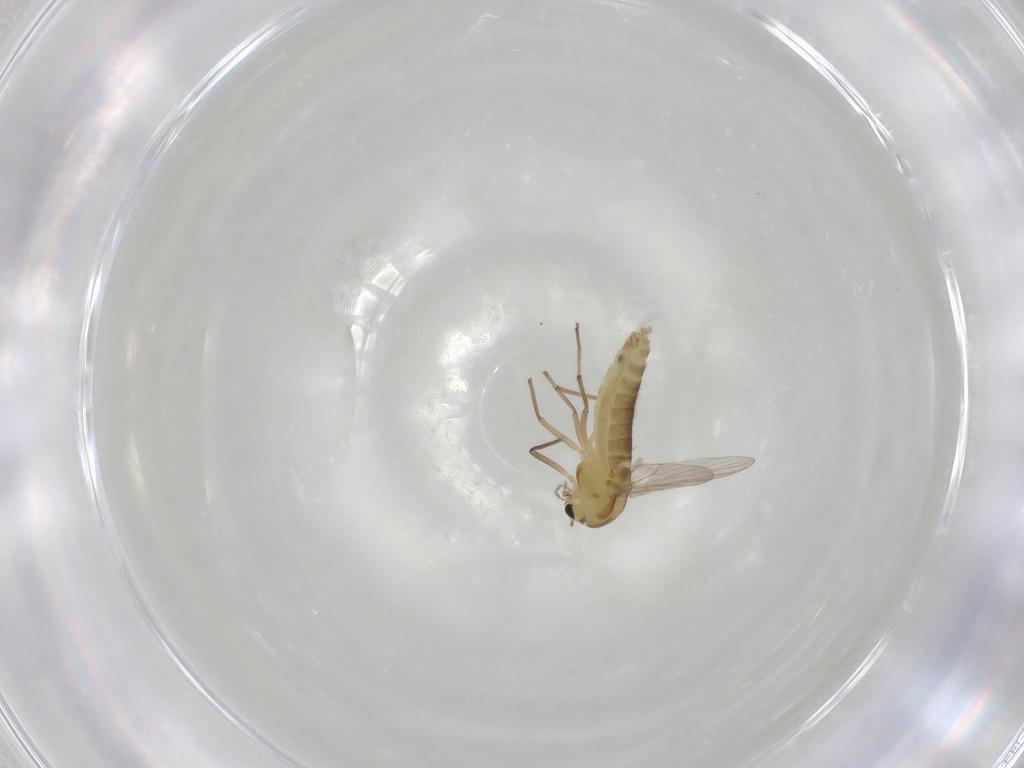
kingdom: Animalia
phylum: Arthropoda
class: Insecta
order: Diptera
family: Chironomidae
